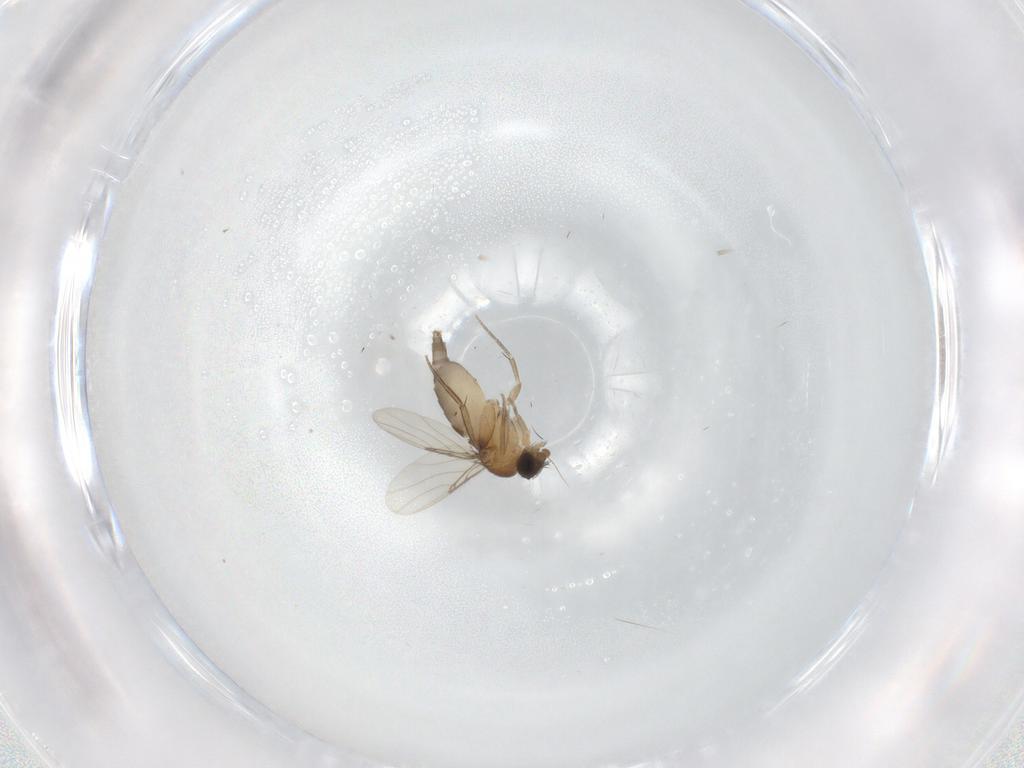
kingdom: Animalia
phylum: Arthropoda
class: Insecta
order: Diptera
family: Phoridae
